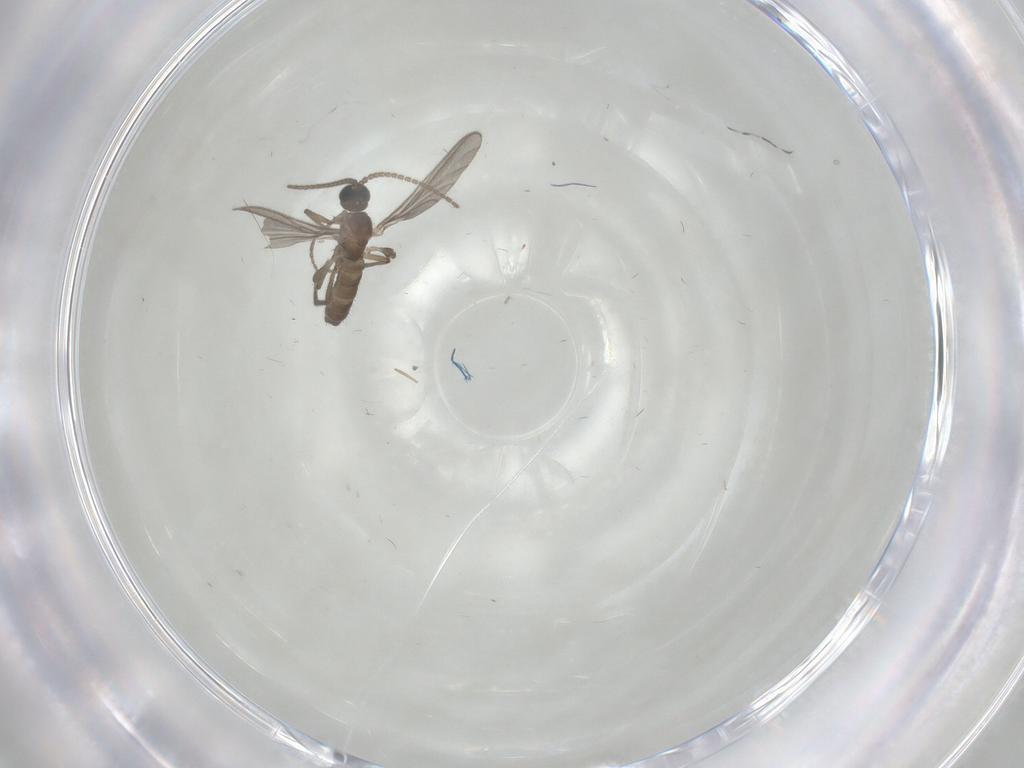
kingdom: Animalia
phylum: Arthropoda
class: Insecta
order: Diptera
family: Sciaridae
